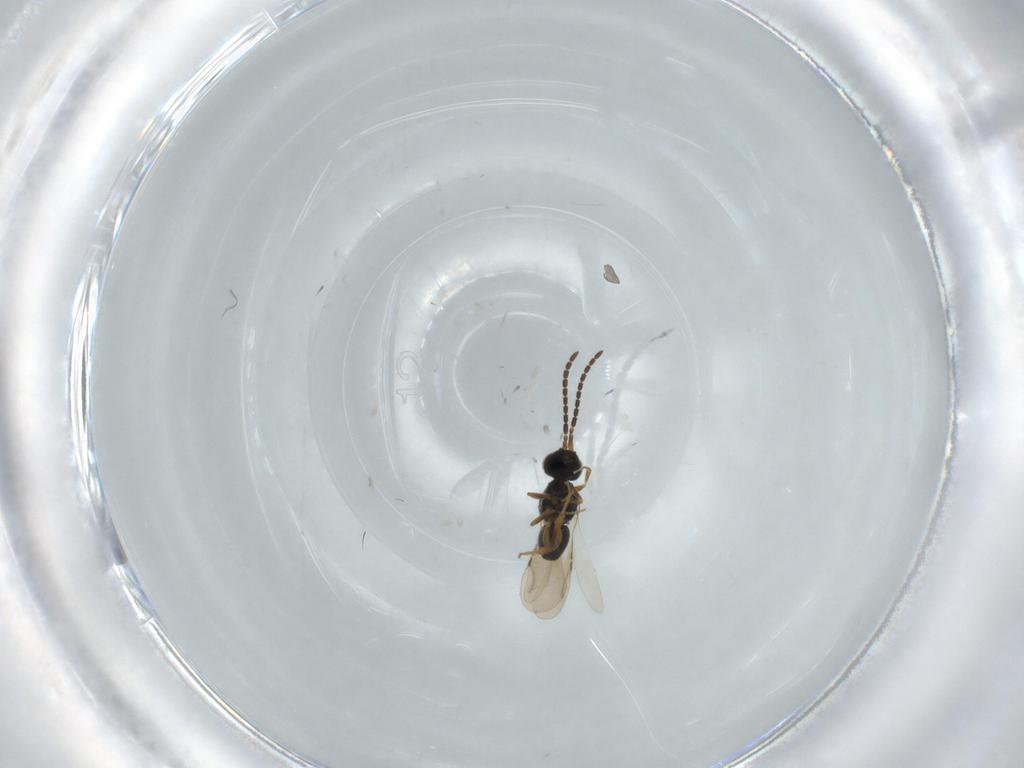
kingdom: Animalia
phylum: Arthropoda
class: Insecta
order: Hymenoptera
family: Ceraphronidae
